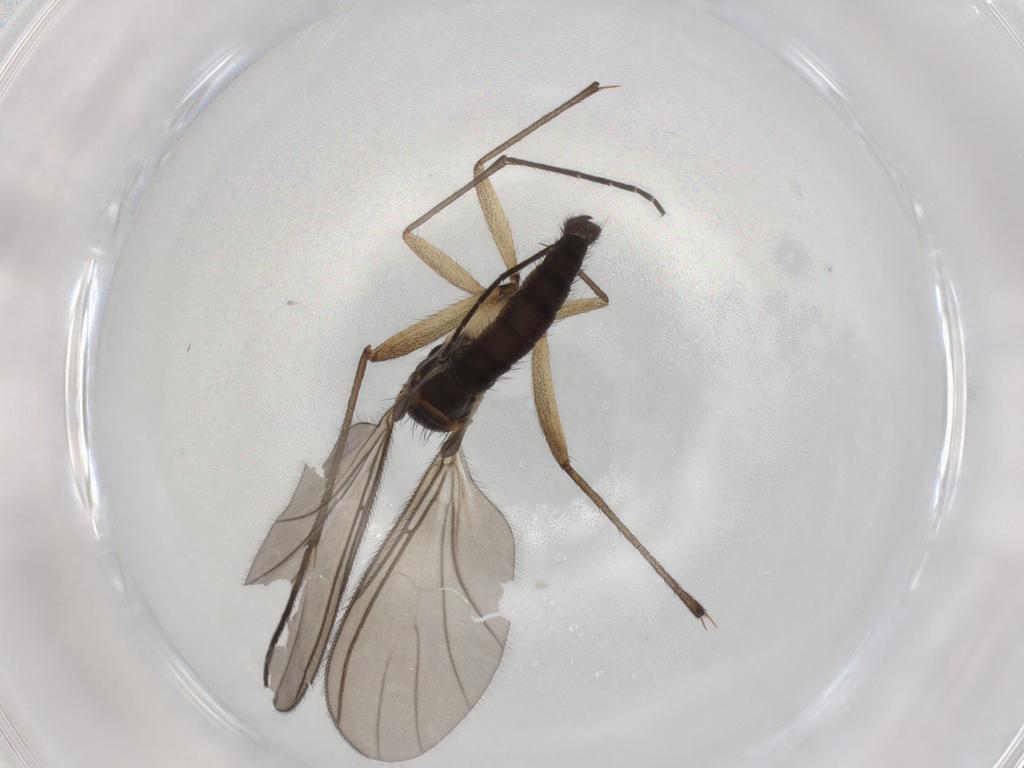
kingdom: Animalia
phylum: Arthropoda
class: Insecta
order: Diptera
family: Sciaridae
